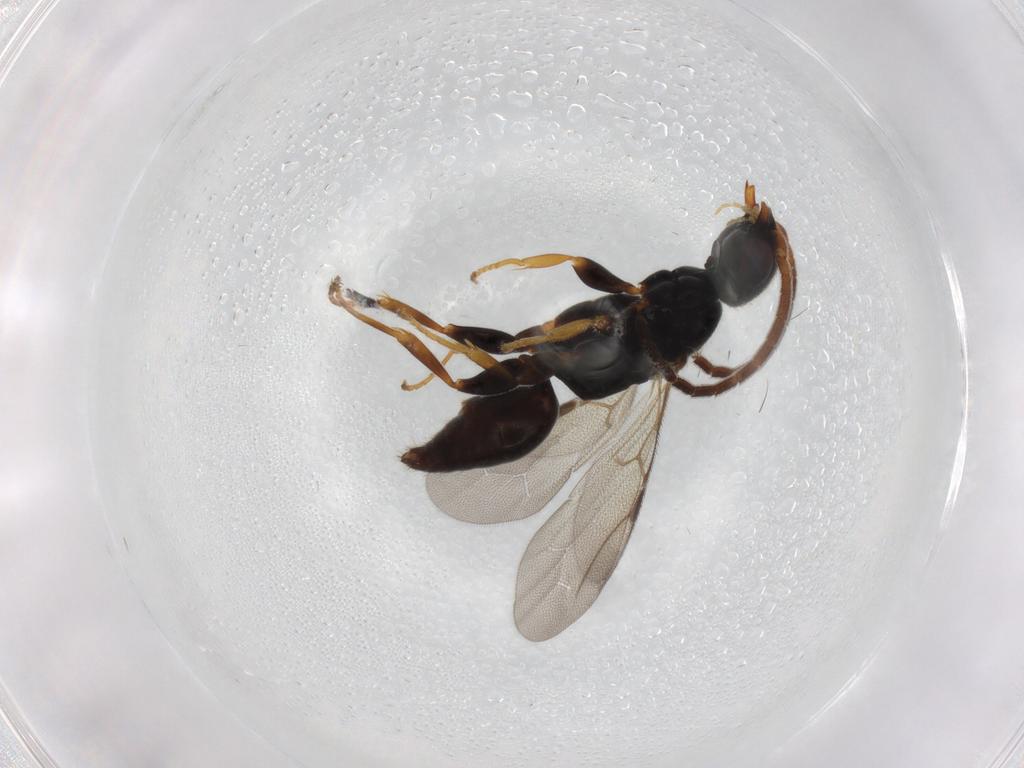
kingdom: Animalia
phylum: Arthropoda
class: Insecta
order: Hymenoptera
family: Bethylidae
